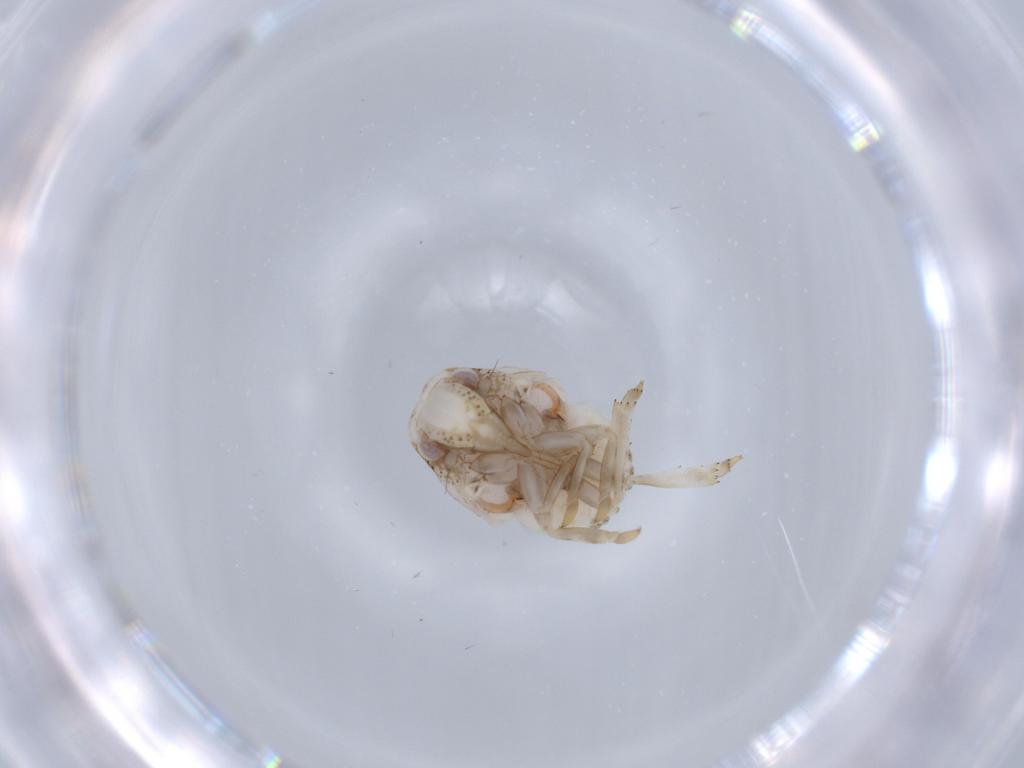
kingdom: Animalia
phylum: Arthropoda
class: Insecta
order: Hemiptera
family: Acanaloniidae
